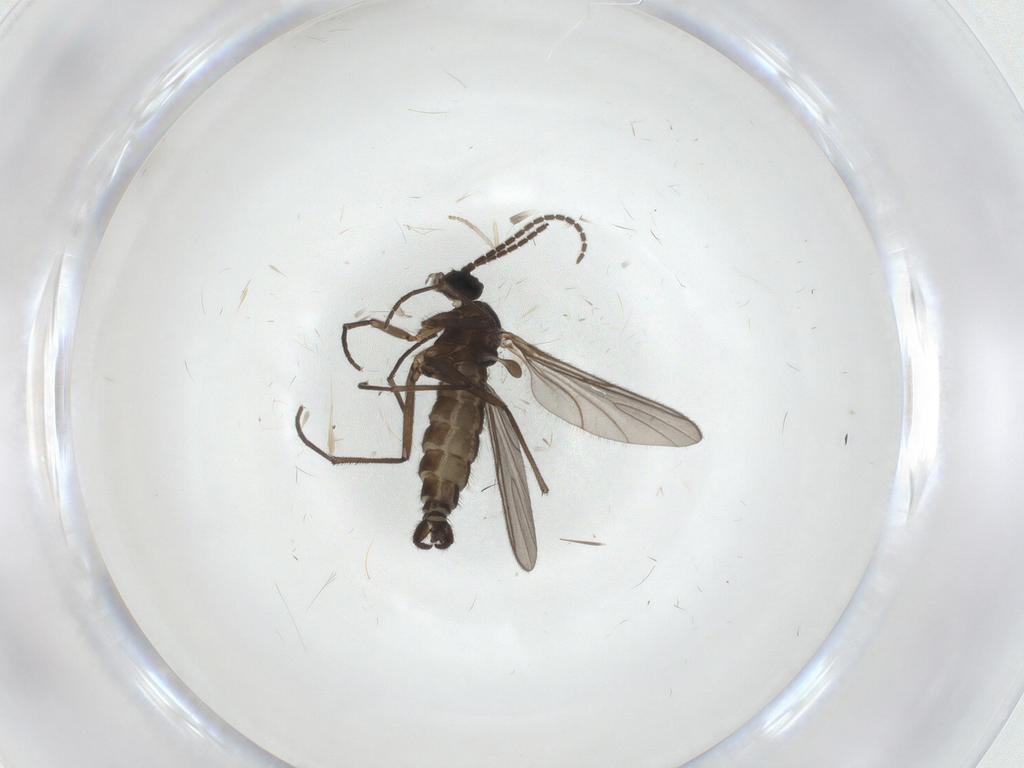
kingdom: Animalia
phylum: Arthropoda
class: Insecta
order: Diptera
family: Sciaridae
